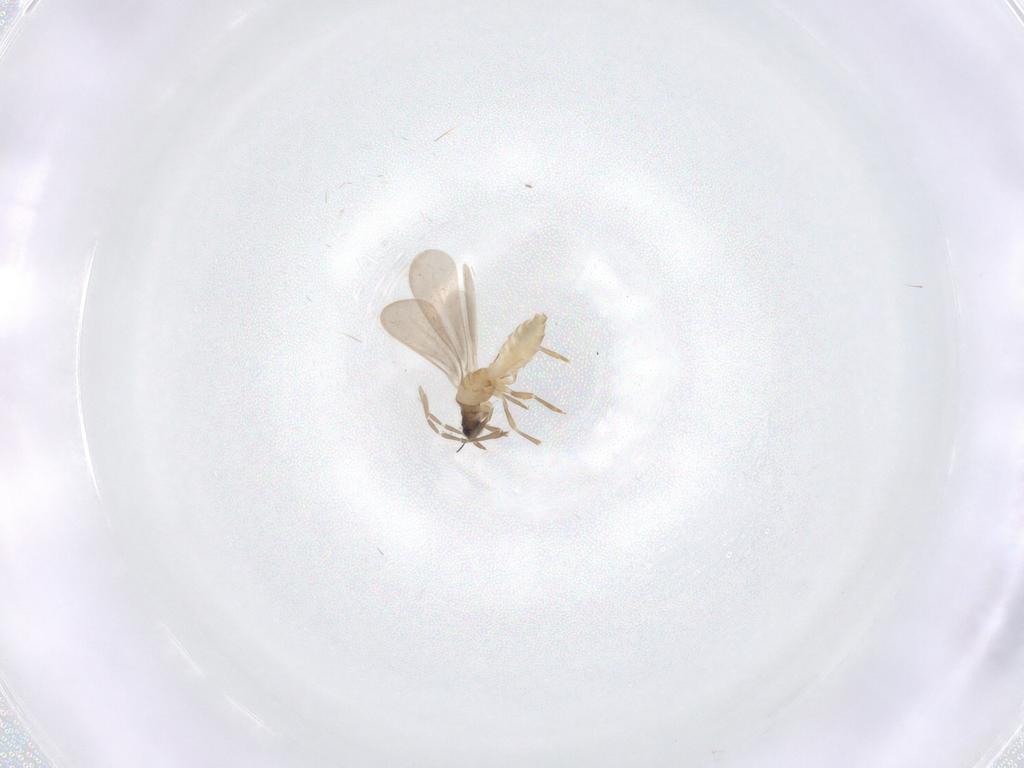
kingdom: Animalia
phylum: Arthropoda
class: Insecta
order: Hemiptera
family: Enicocephalidae
